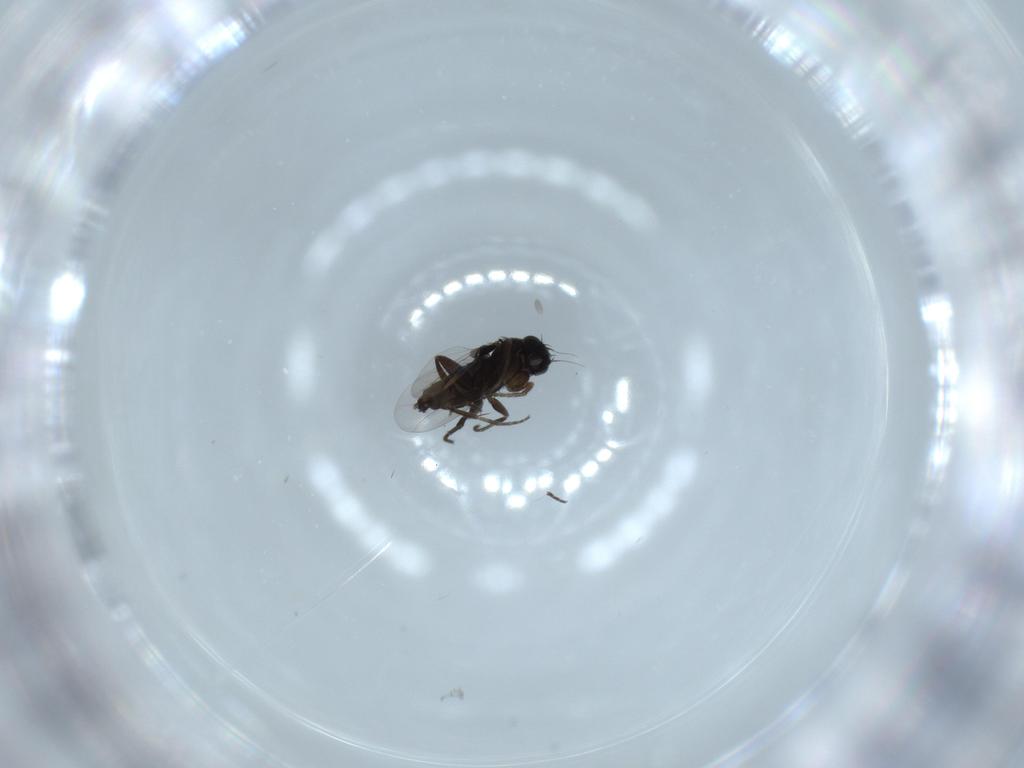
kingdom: Animalia
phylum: Arthropoda
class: Insecta
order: Diptera
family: Phoridae
